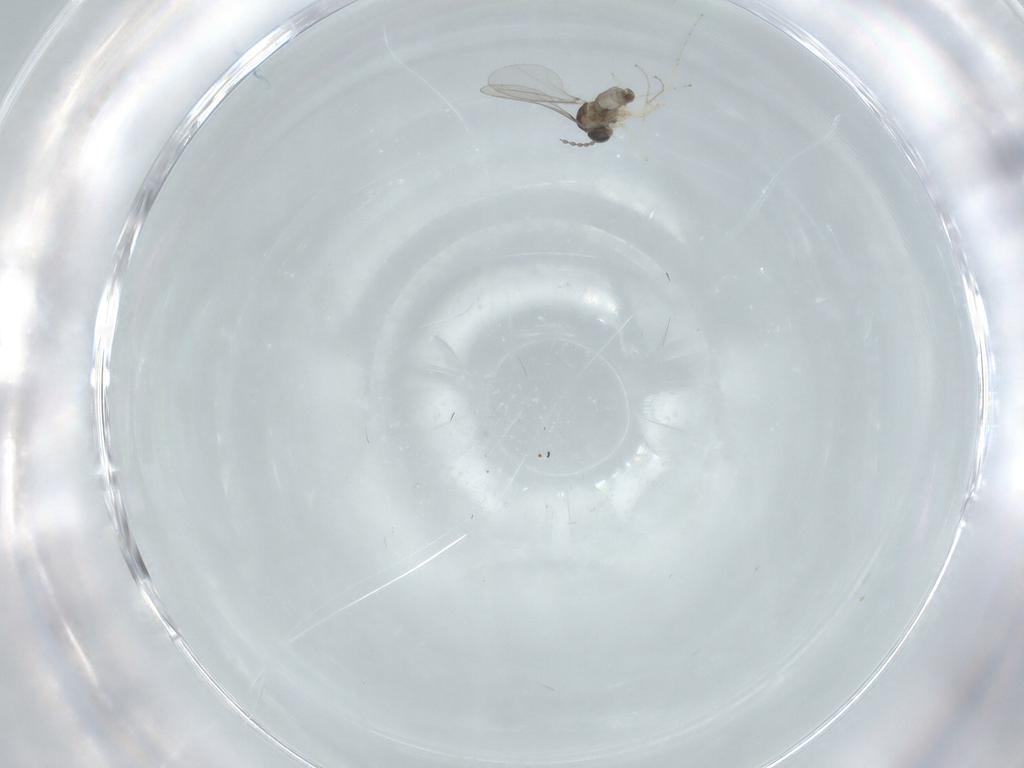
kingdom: Animalia
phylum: Arthropoda
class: Insecta
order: Diptera
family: Cecidomyiidae
